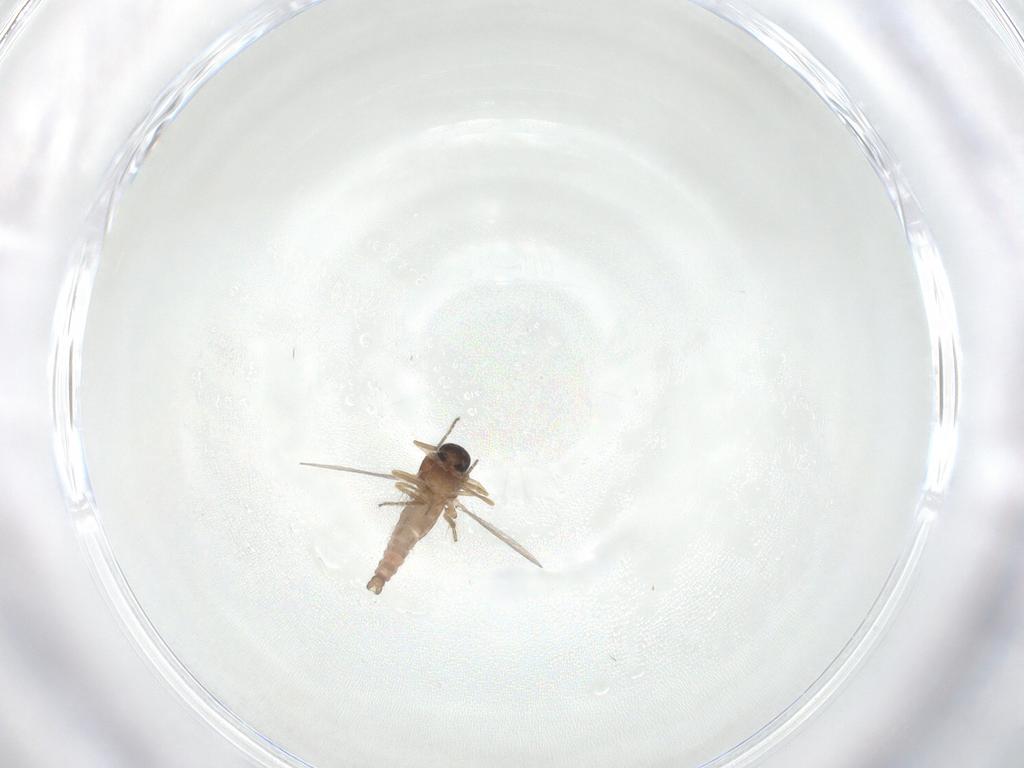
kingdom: Animalia
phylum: Arthropoda
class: Insecta
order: Diptera
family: Ceratopogonidae
